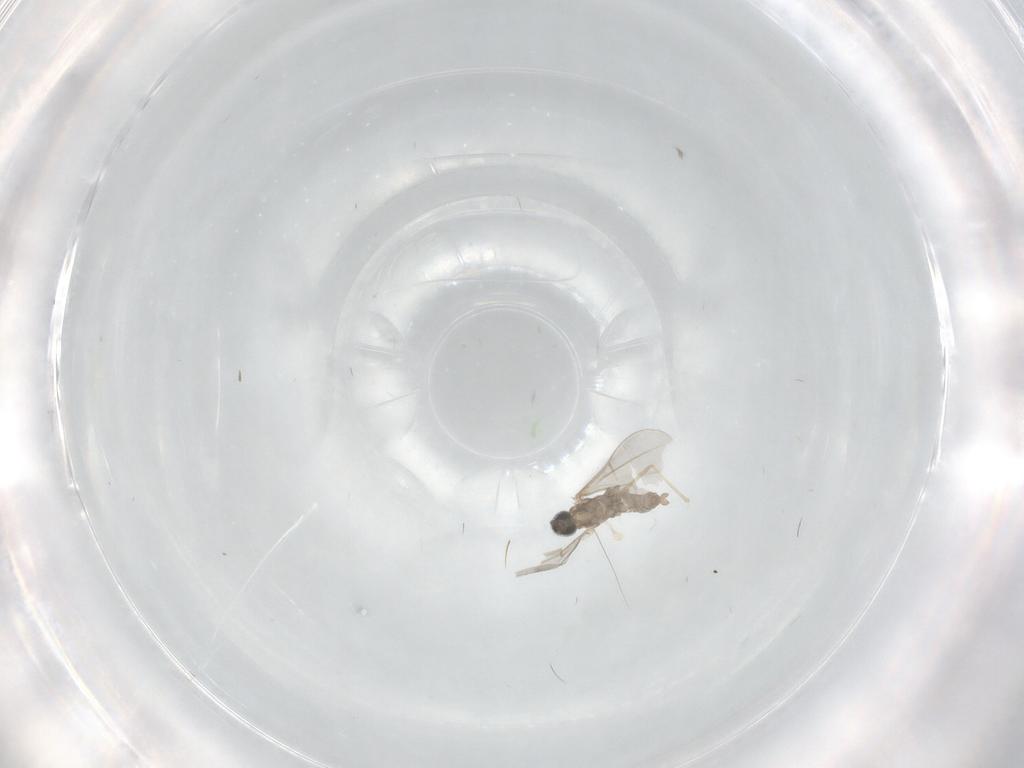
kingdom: Animalia
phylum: Arthropoda
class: Insecta
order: Diptera
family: Cecidomyiidae
